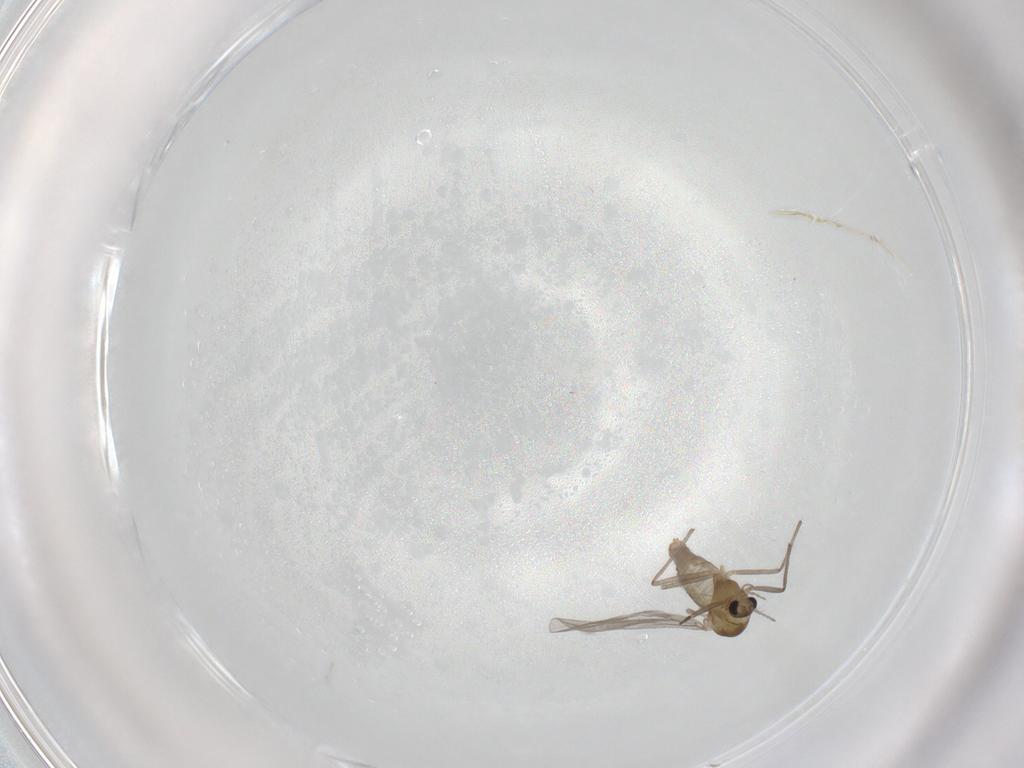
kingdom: Animalia
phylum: Arthropoda
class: Insecta
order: Diptera
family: Chironomidae
